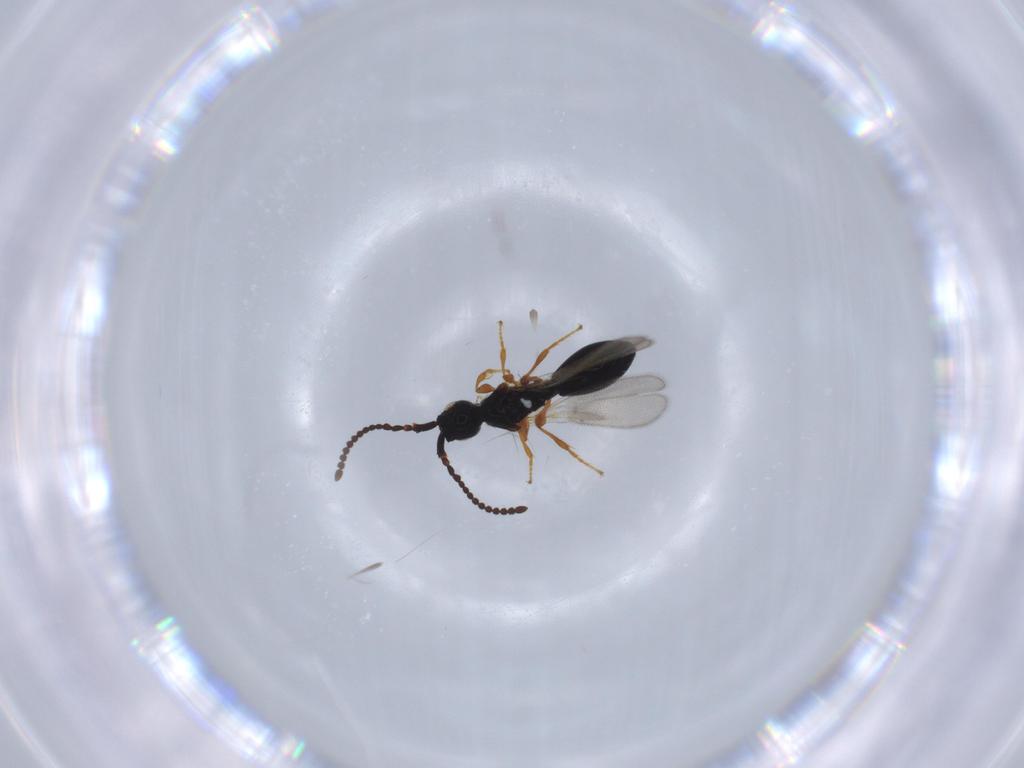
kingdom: Animalia
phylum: Arthropoda
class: Insecta
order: Hymenoptera
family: Diapriidae
